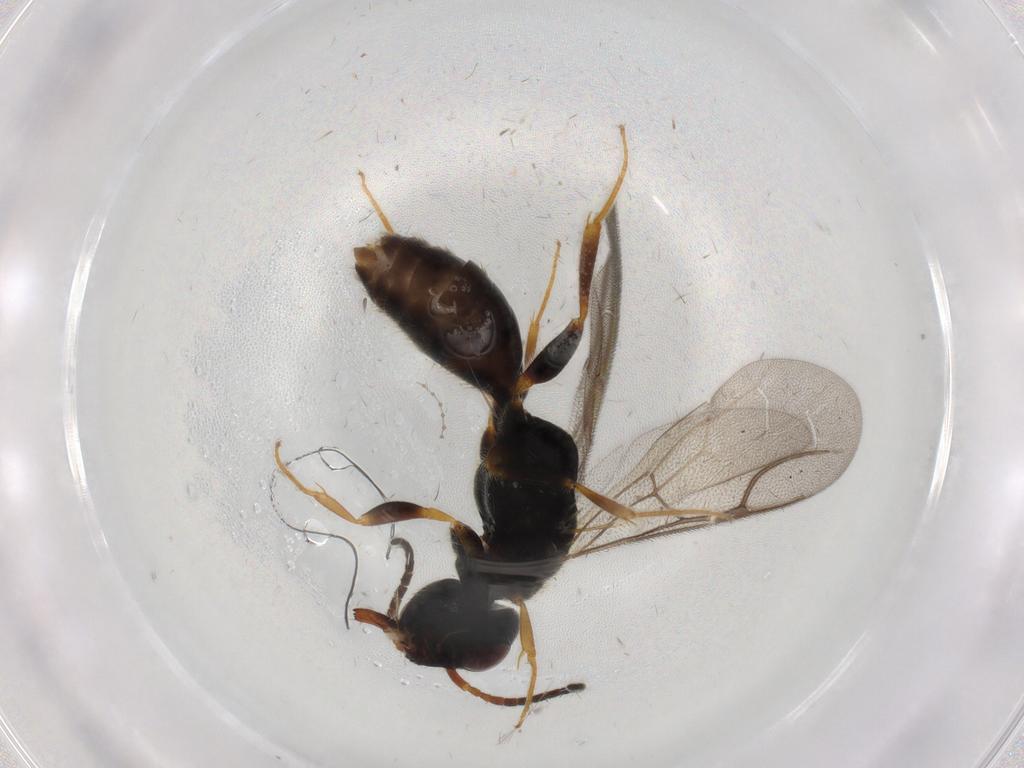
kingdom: Animalia
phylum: Arthropoda
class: Insecta
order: Hymenoptera
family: Bethylidae
